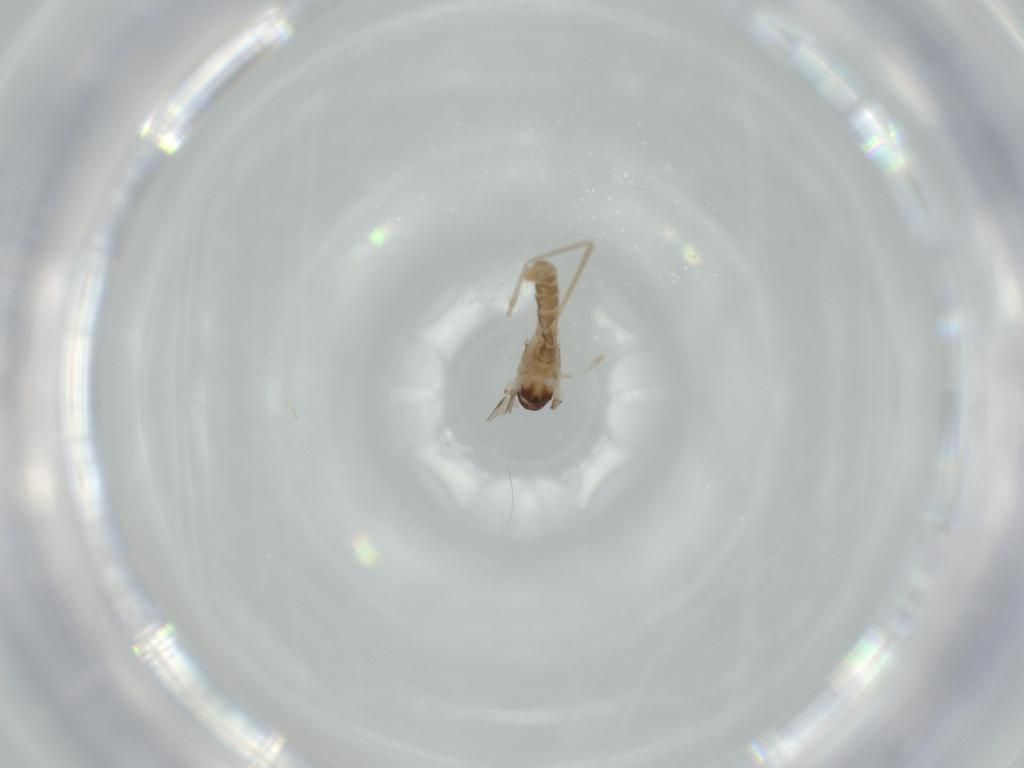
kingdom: Animalia
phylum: Arthropoda
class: Insecta
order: Diptera
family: Cecidomyiidae
